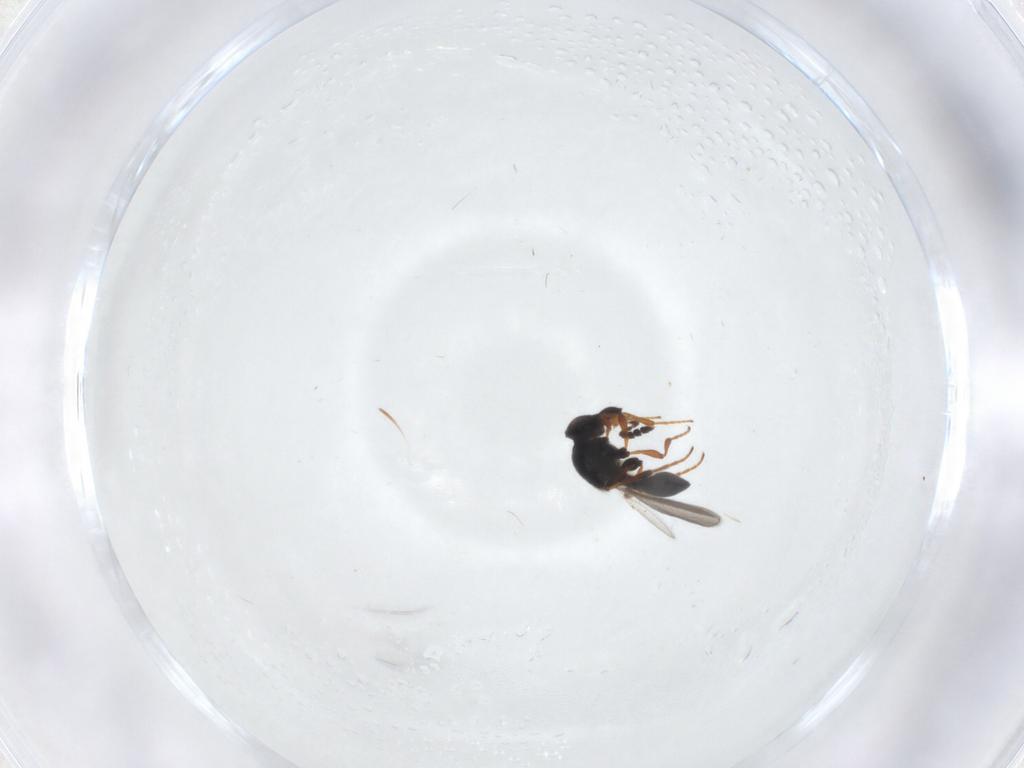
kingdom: Animalia
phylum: Arthropoda
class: Insecta
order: Hymenoptera
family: Platygastridae
